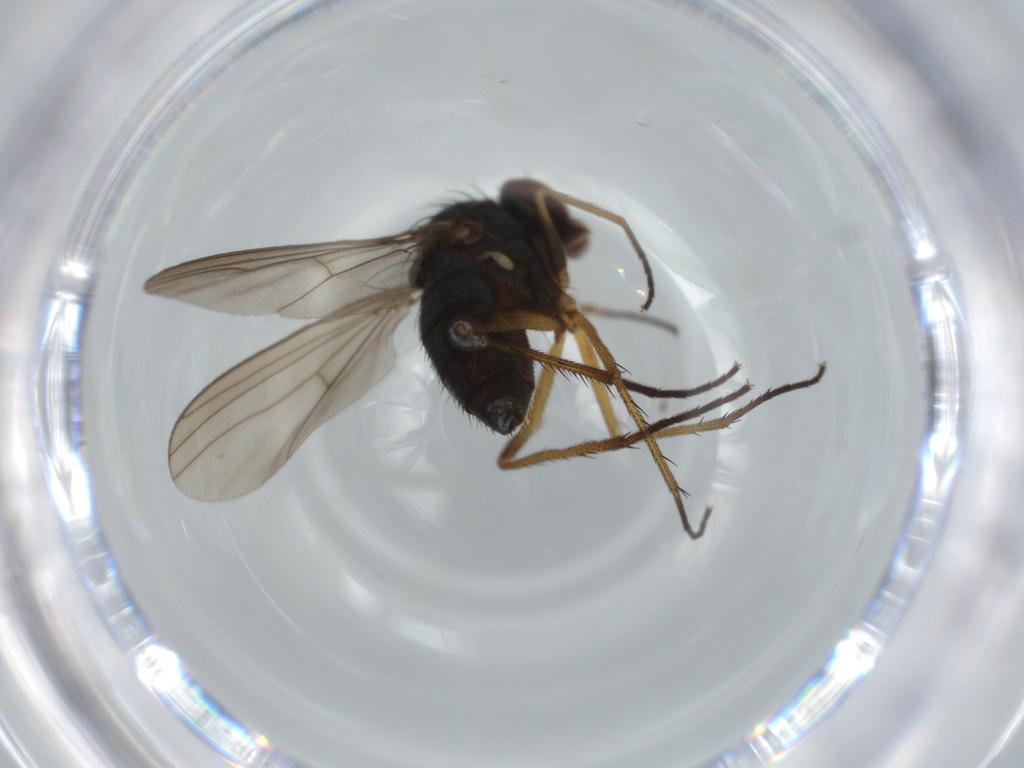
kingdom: Animalia
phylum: Arthropoda
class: Insecta
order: Diptera
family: Dolichopodidae
